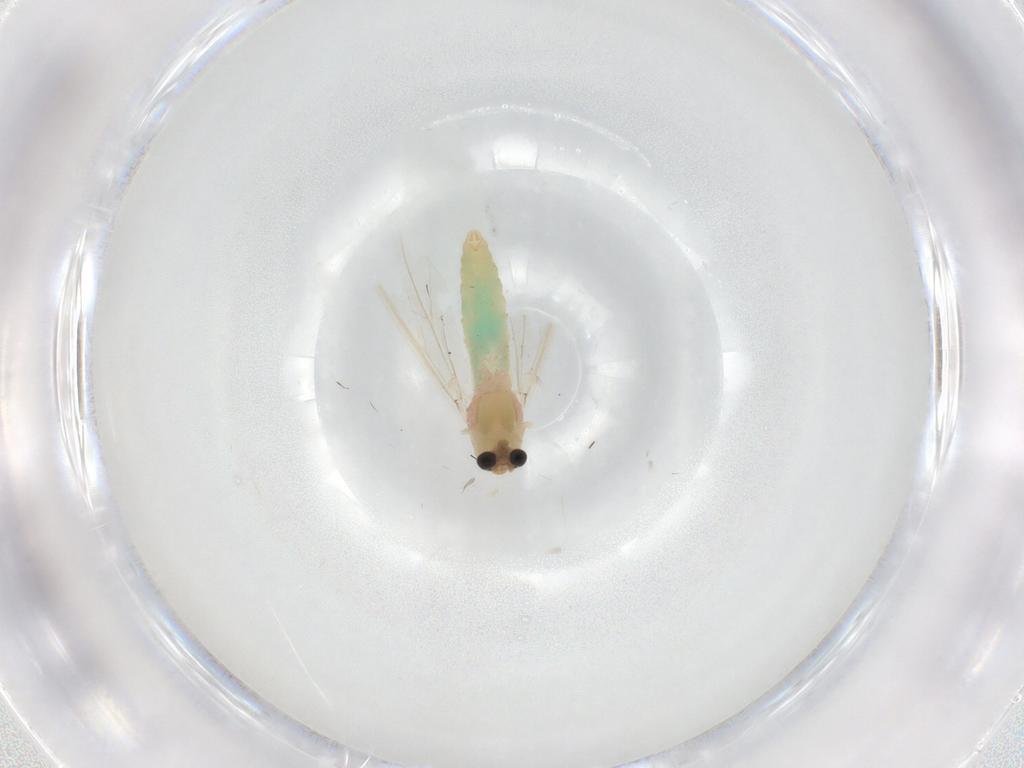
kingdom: Animalia
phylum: Arthropoda
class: Insecta
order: Diptera
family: Chironomidae
